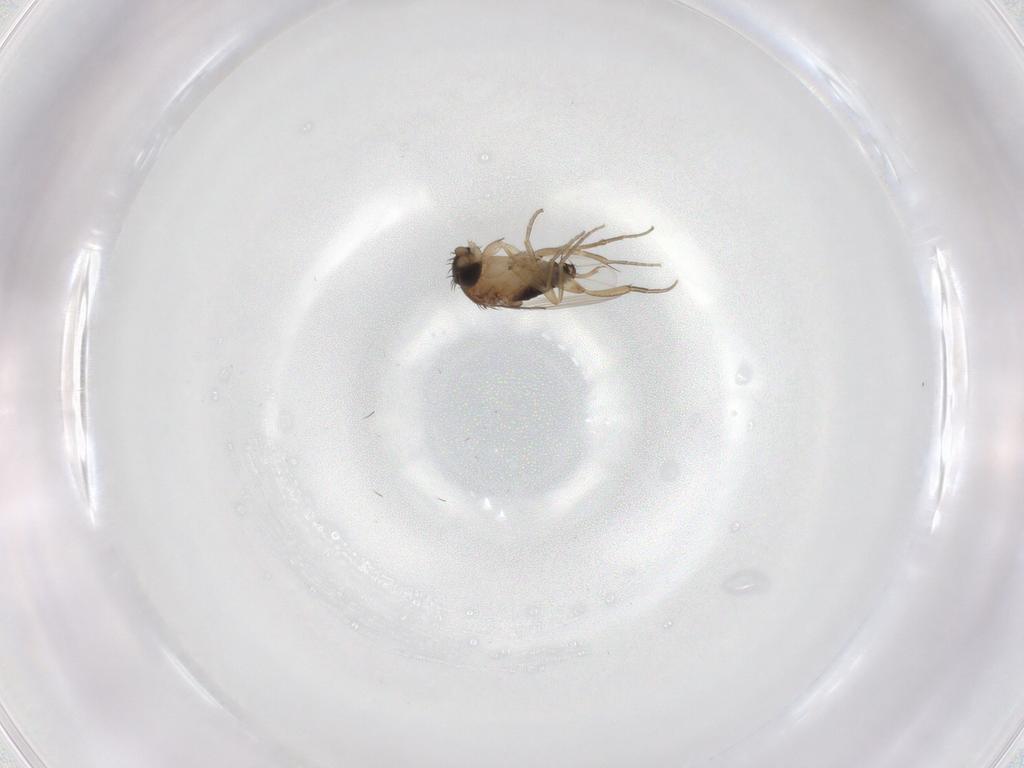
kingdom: Animalia
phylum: Arthropoda
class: Insecta
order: Diptera
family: Phoridae
